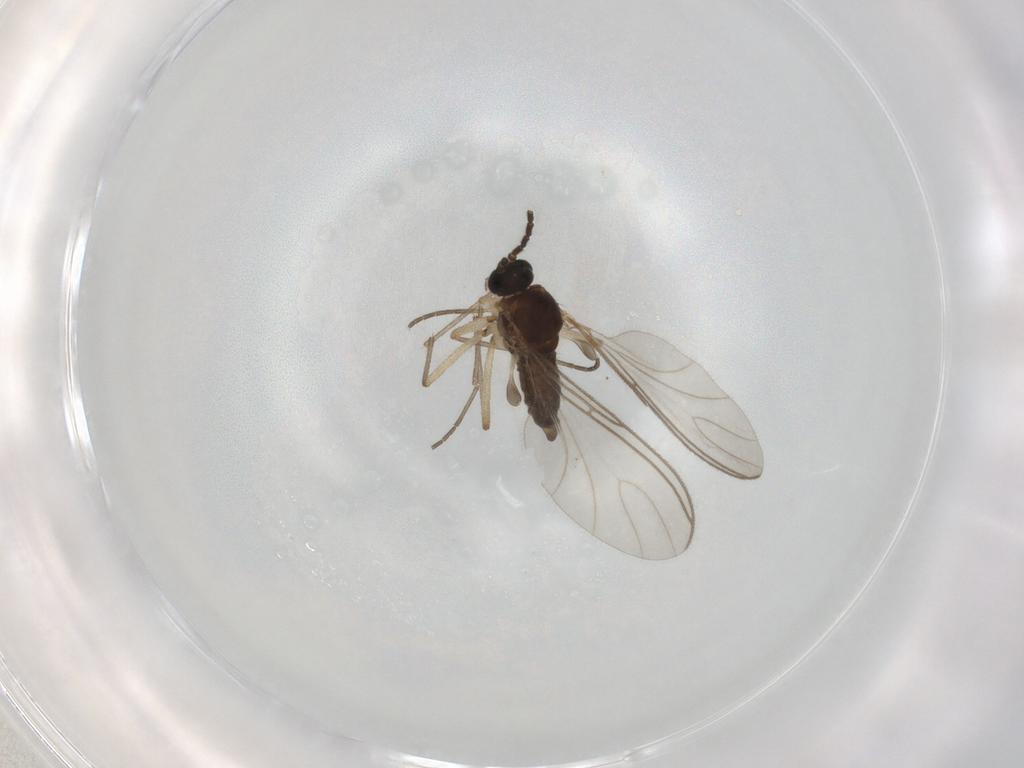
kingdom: Animalia
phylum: Arthropoda
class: Insecta
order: Diptera
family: Sciaridae
